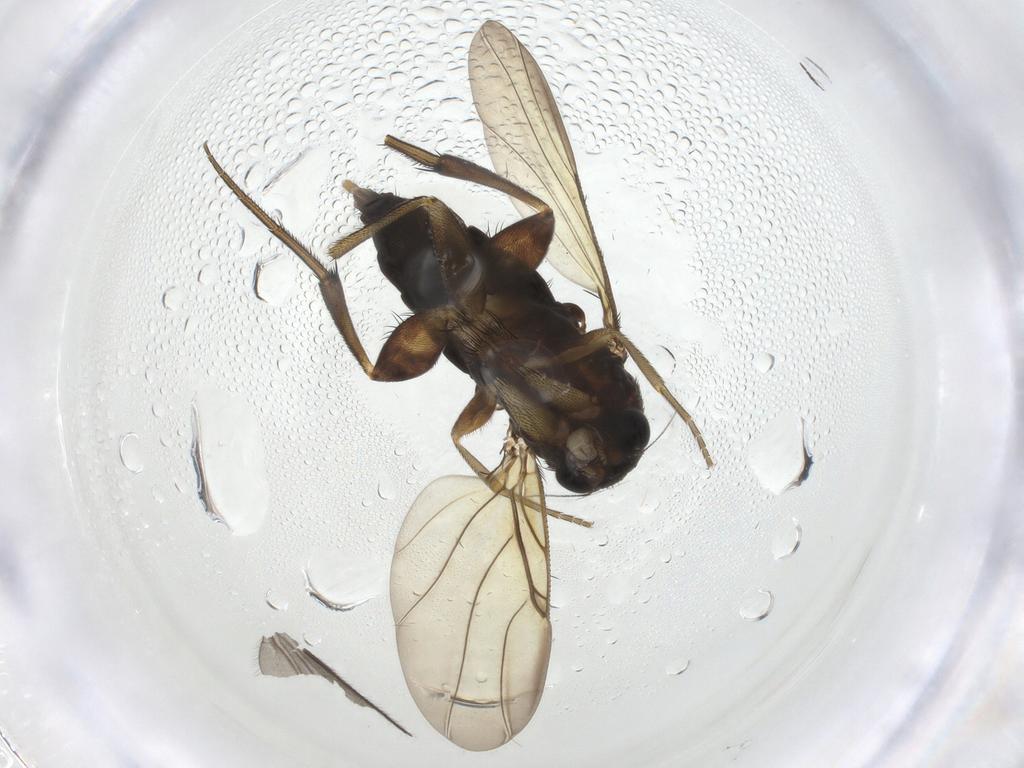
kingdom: Animalia
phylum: Arthropoda
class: Insecta
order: Diptera
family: Phoridae
